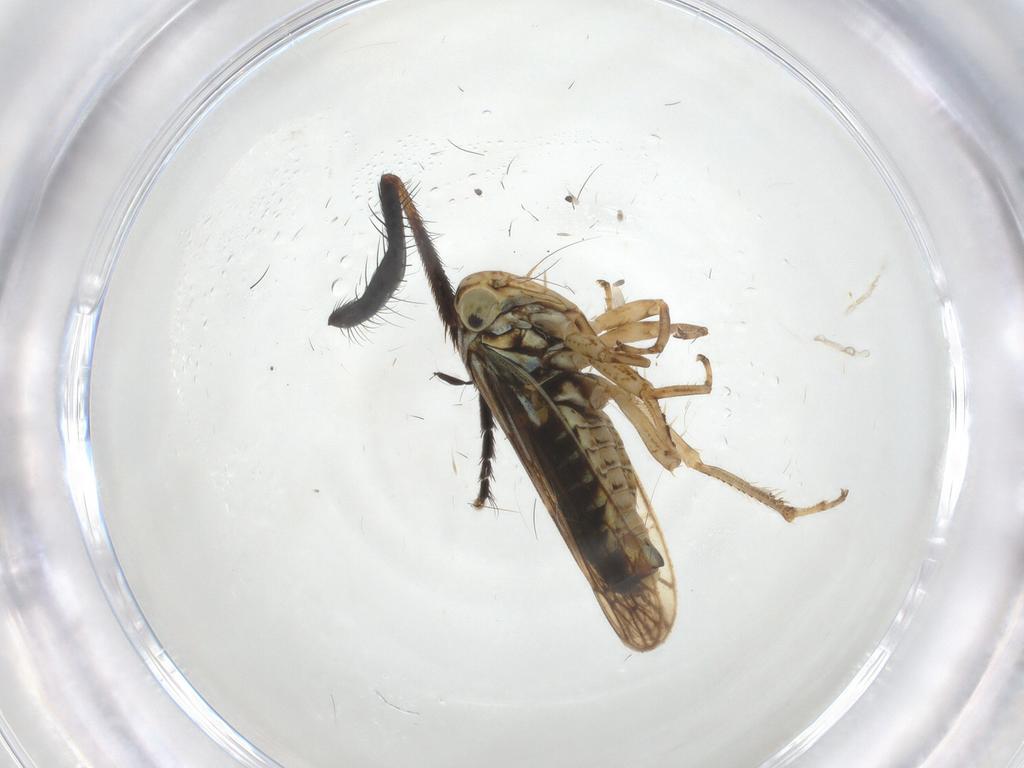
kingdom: Animalia
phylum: Arthropoda
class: Insecta
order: Hemiptera
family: Cicadellidae
